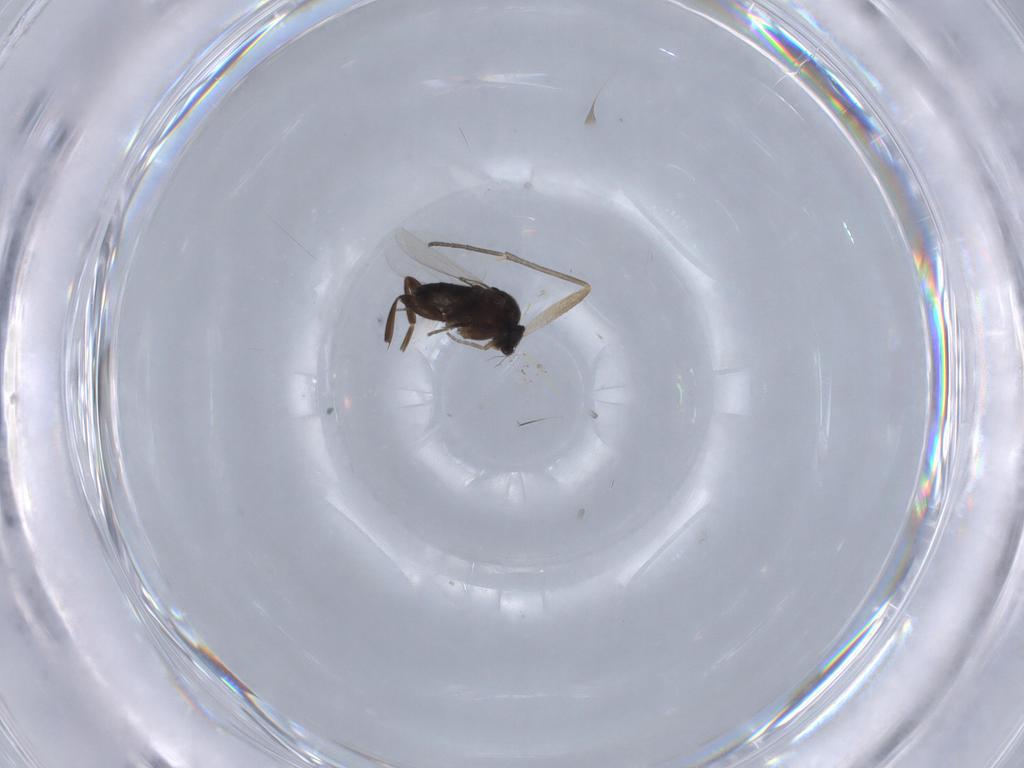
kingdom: Animalia
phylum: Arthropoda
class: Insecta
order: Diptera
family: Phoridae
